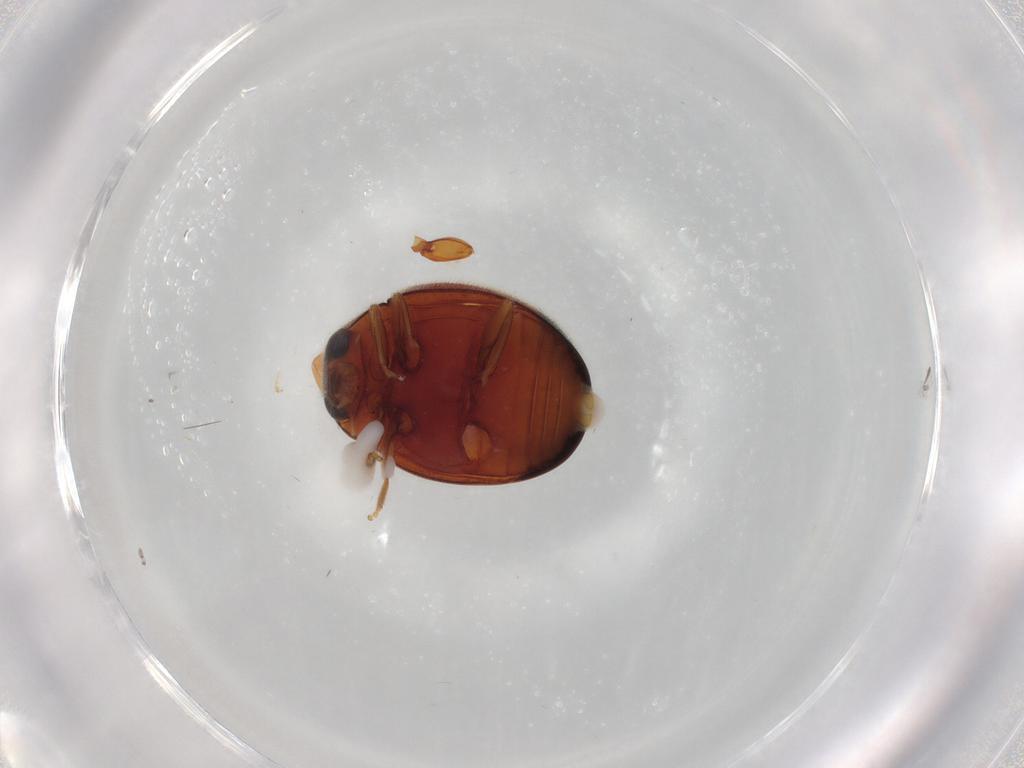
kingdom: Animalia
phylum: Arthropoda
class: Insecta
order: Coleoptera
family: Coccinellidae
